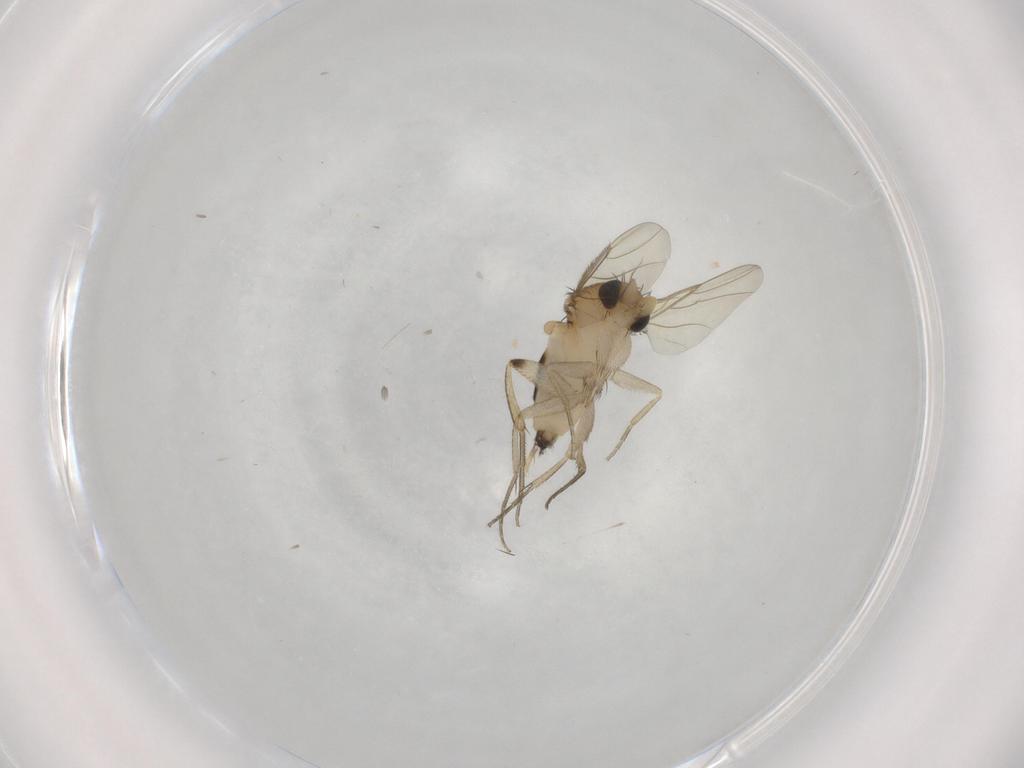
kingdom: Animalia
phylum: Arthropoda
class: Insecta
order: Diptera
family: Phoridae
